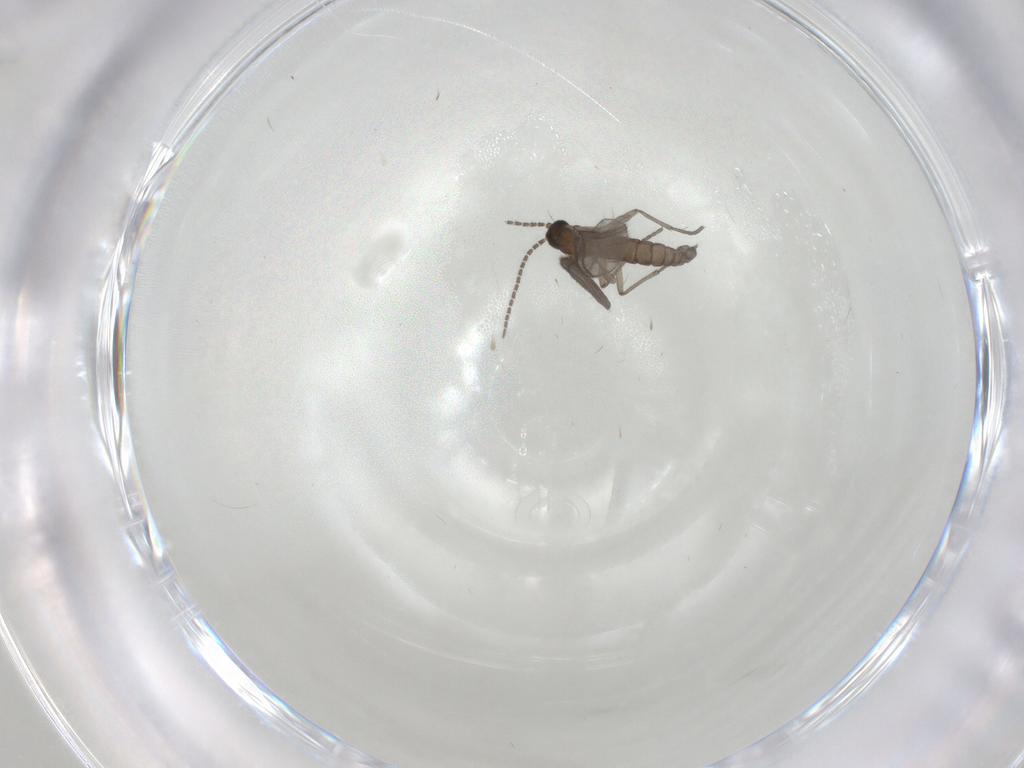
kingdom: Animalia
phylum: Arthropoda
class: Insecta
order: Diptera
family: Sciaridae
